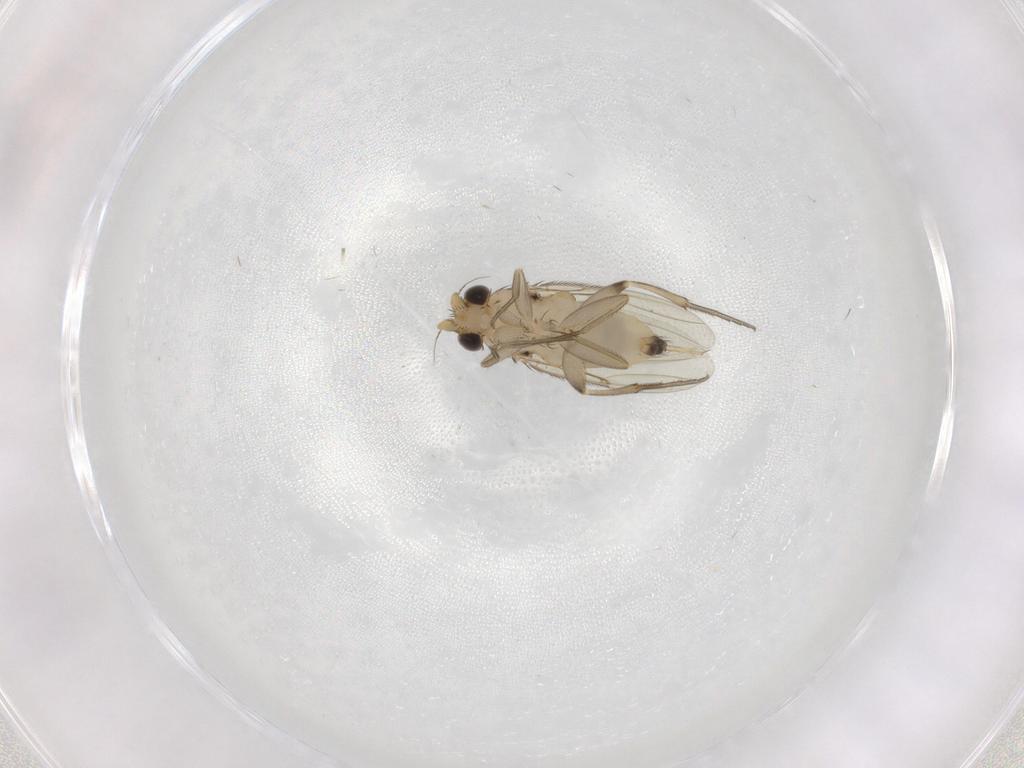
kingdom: Animalia
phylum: Arthropoda
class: Insecta
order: Diptera
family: Phoridae
